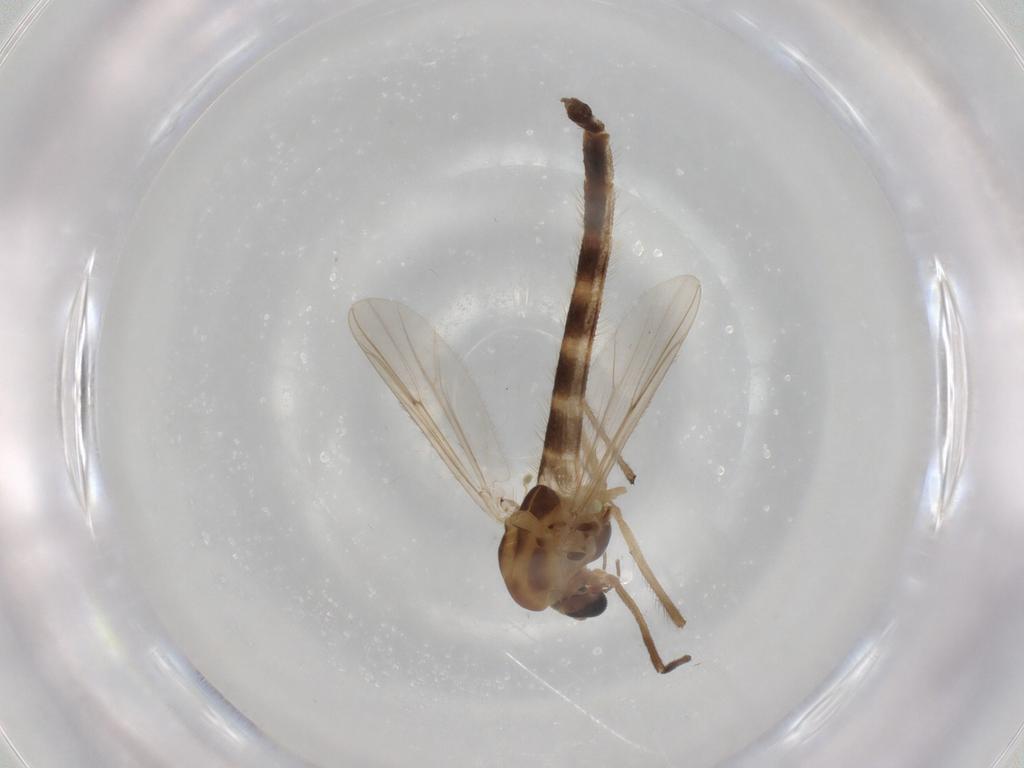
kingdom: Animalia
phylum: Arthropoda
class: Insecta
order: Diptera
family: Chironomidae
